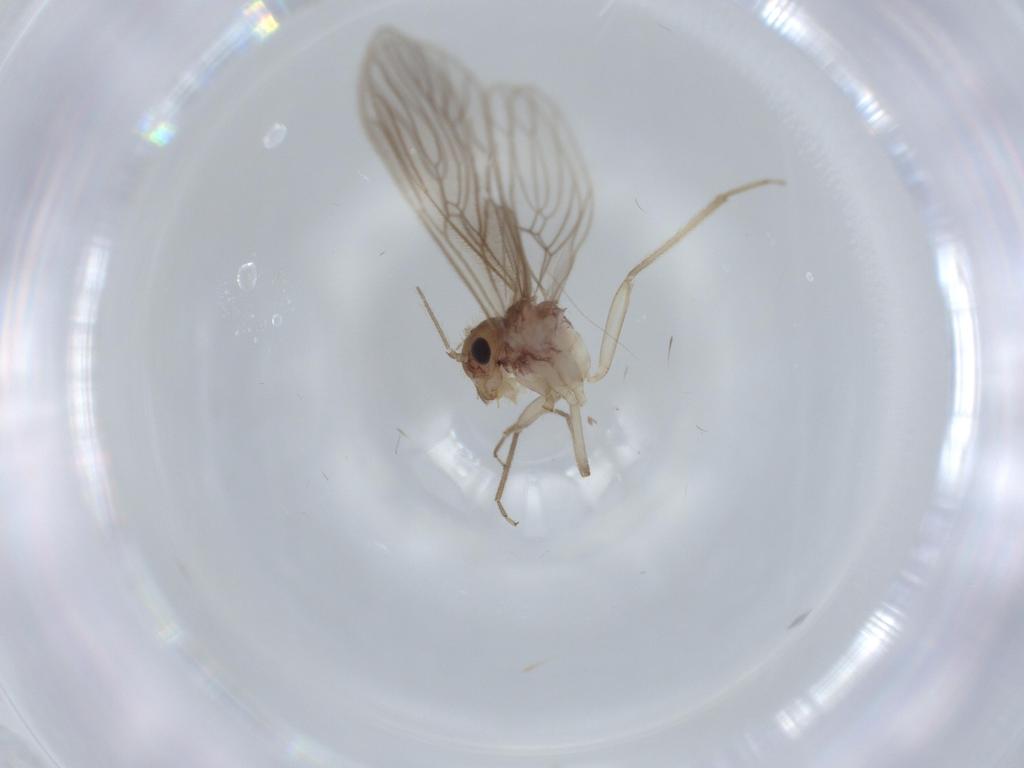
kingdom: Animalia
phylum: Arthropoda
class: Insecta
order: Psocodea
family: Cladiopsocidae
